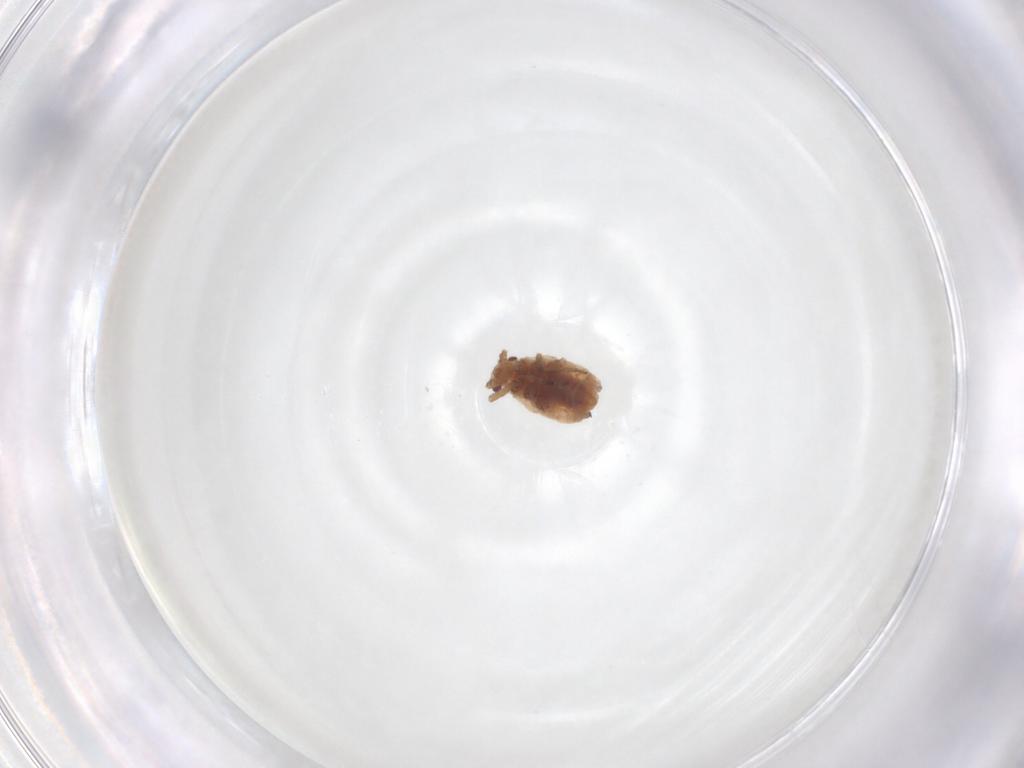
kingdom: Animalia
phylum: Arthropoda
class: Insecta
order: Hemiptera
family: Aphididae
